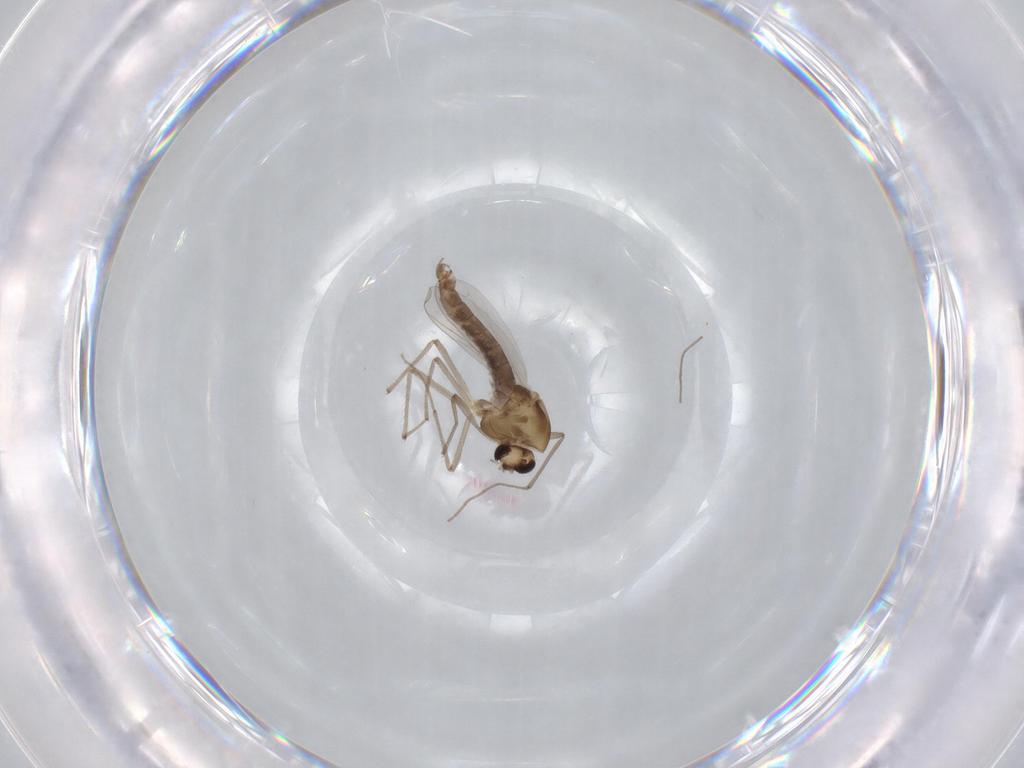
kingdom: Animalia
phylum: Arthropoda
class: Insecta
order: Diptera
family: Chironomidae
